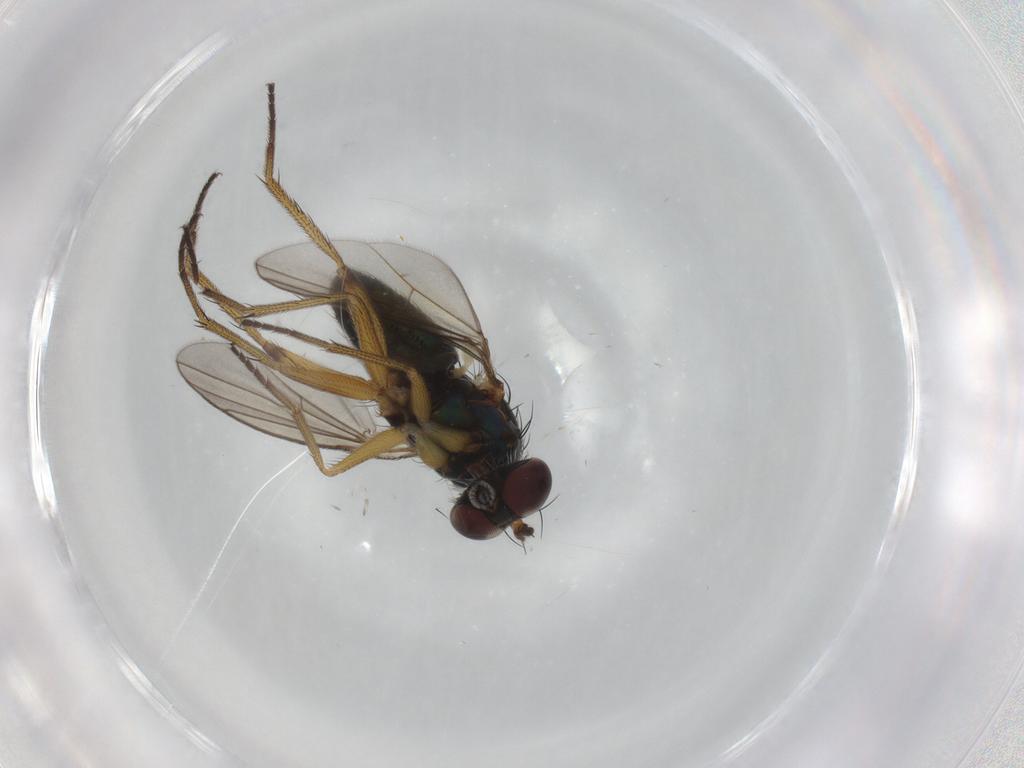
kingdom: Animalia
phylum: Arthropoda
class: Insecta
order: Diptera
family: Dolichopodidae
